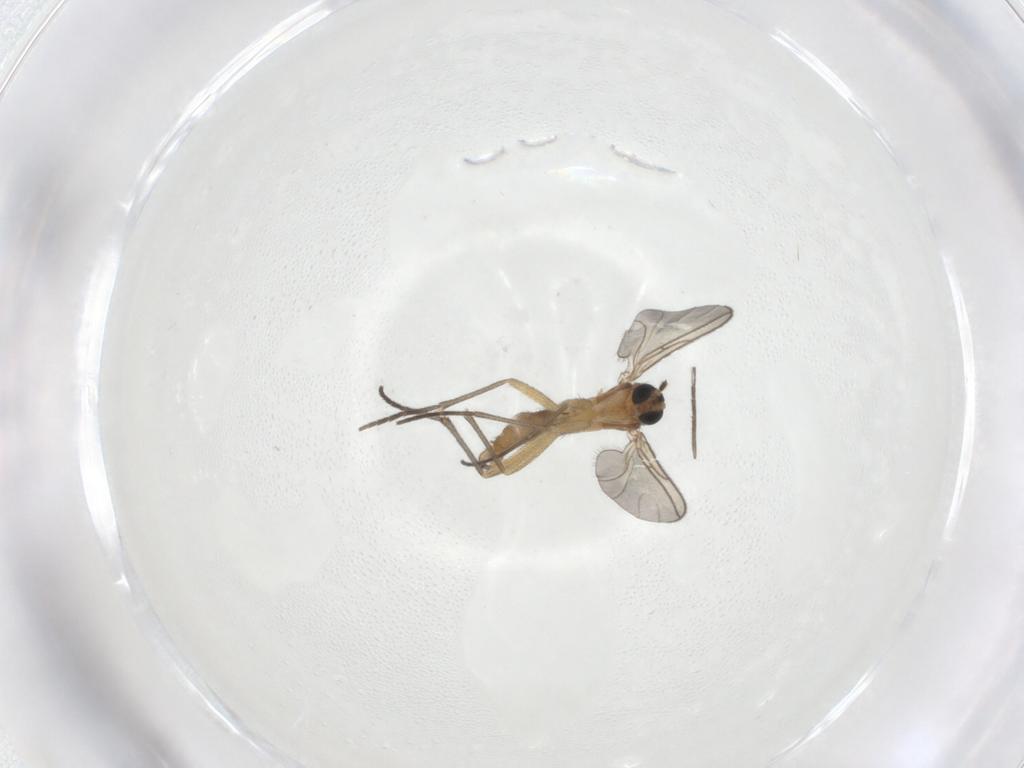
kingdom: Animalia
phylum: Arthropoda
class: Insecta
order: Diptera
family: Sciaridae
